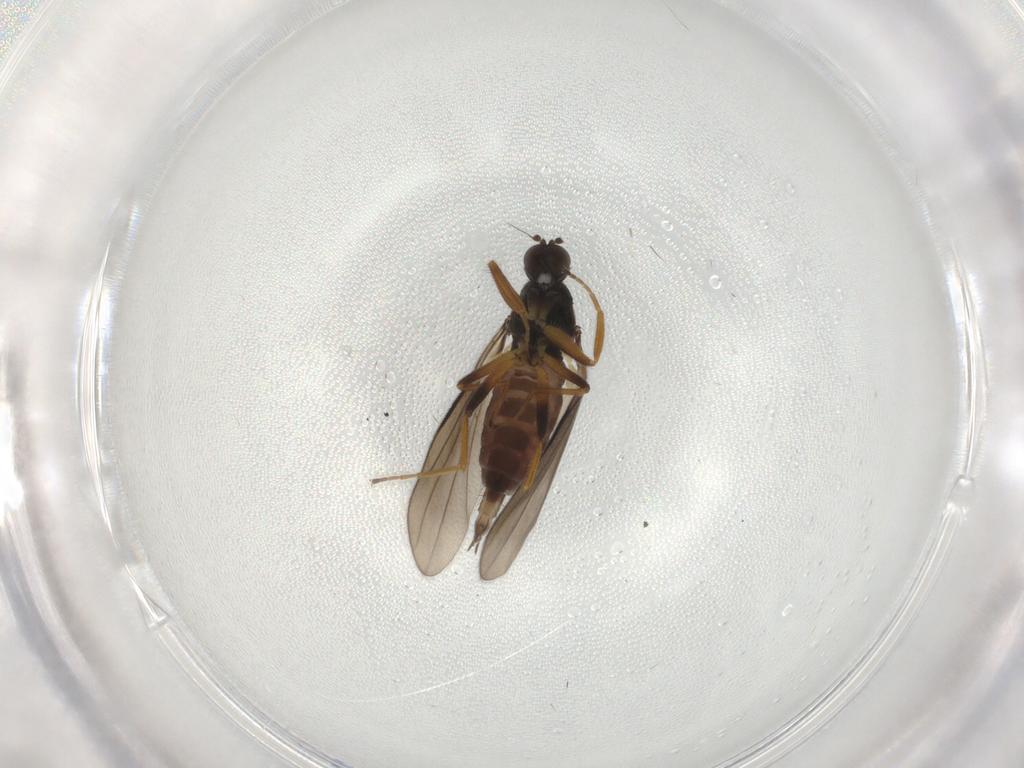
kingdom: Animalia
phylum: Arthropoda
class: Insecta
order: Diptera
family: Hybotidae
